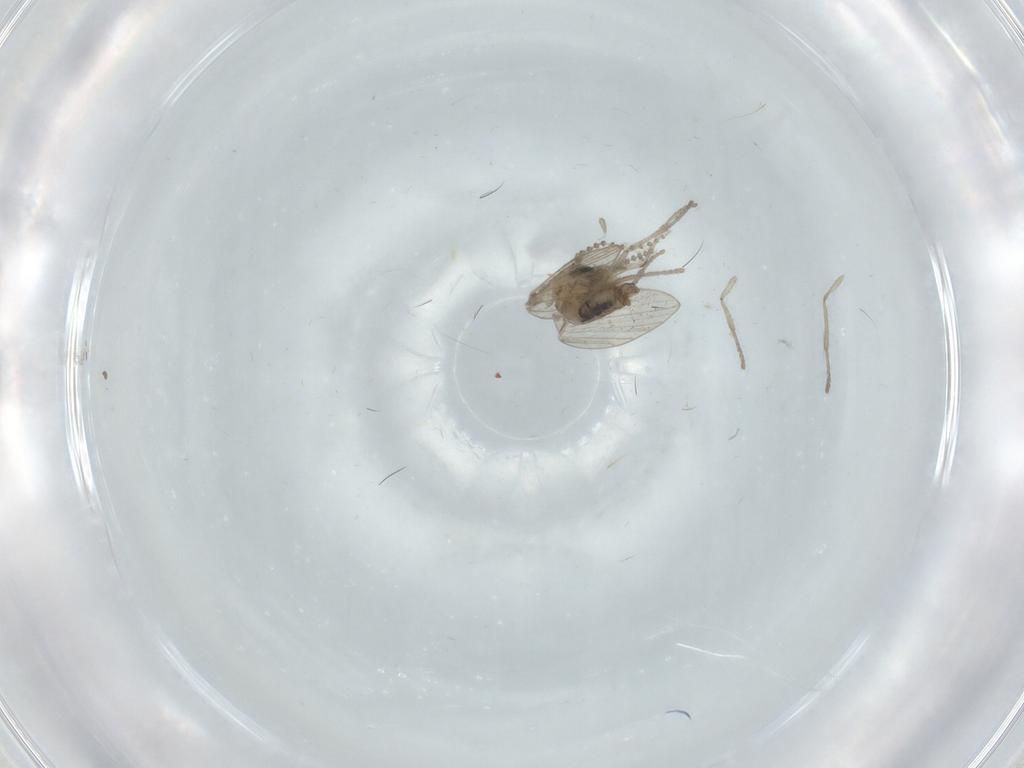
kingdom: Animalia
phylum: Arthropoda
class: Insecta
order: Diptera
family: Psychodidae
